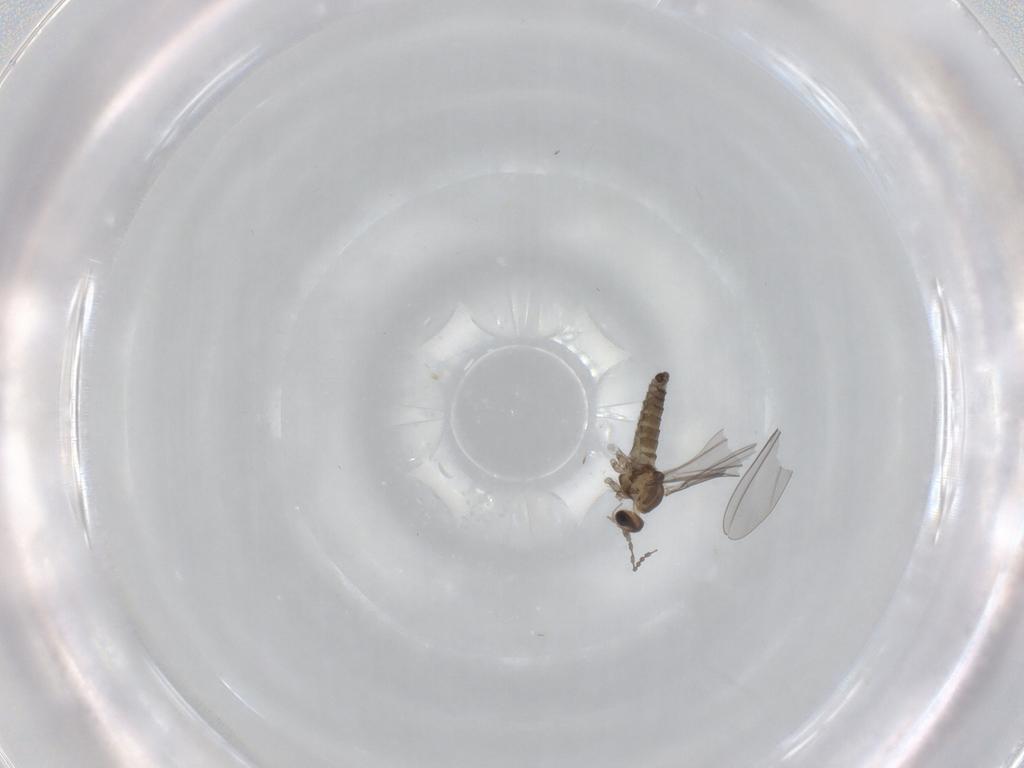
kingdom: Animalia
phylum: Arthropoda
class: Insecta
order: Diptera
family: Cecidomyiidae
